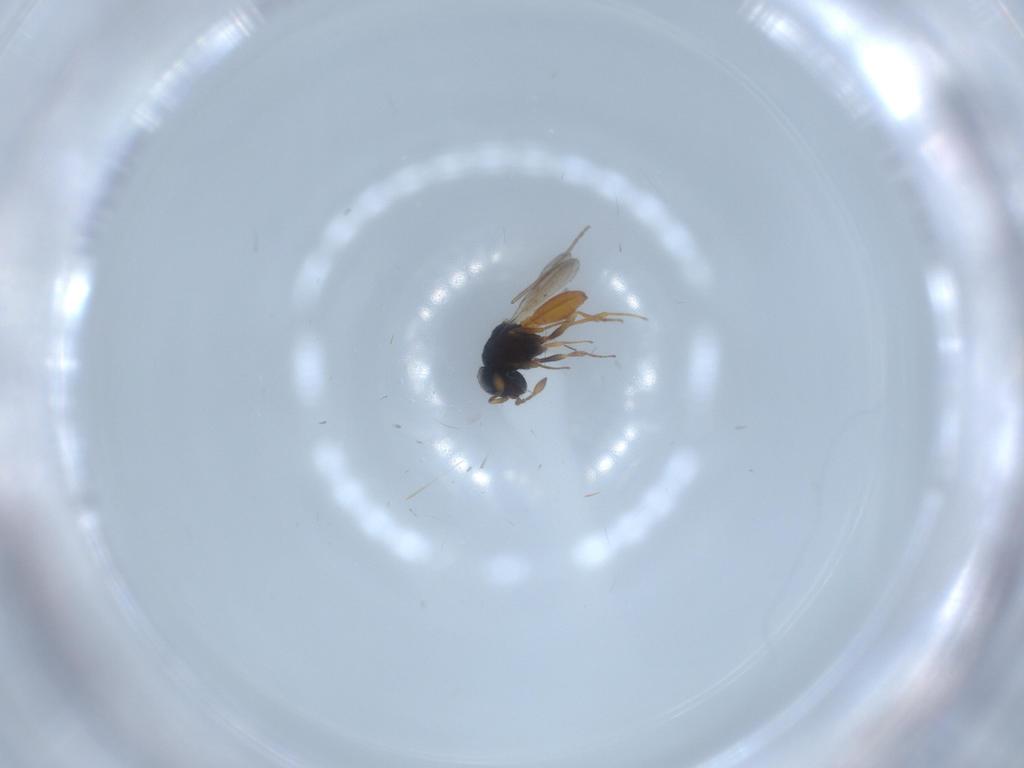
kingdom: Animalia
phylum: Arthropoda
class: Insecta
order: Hymenoptera
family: Scelionidae
